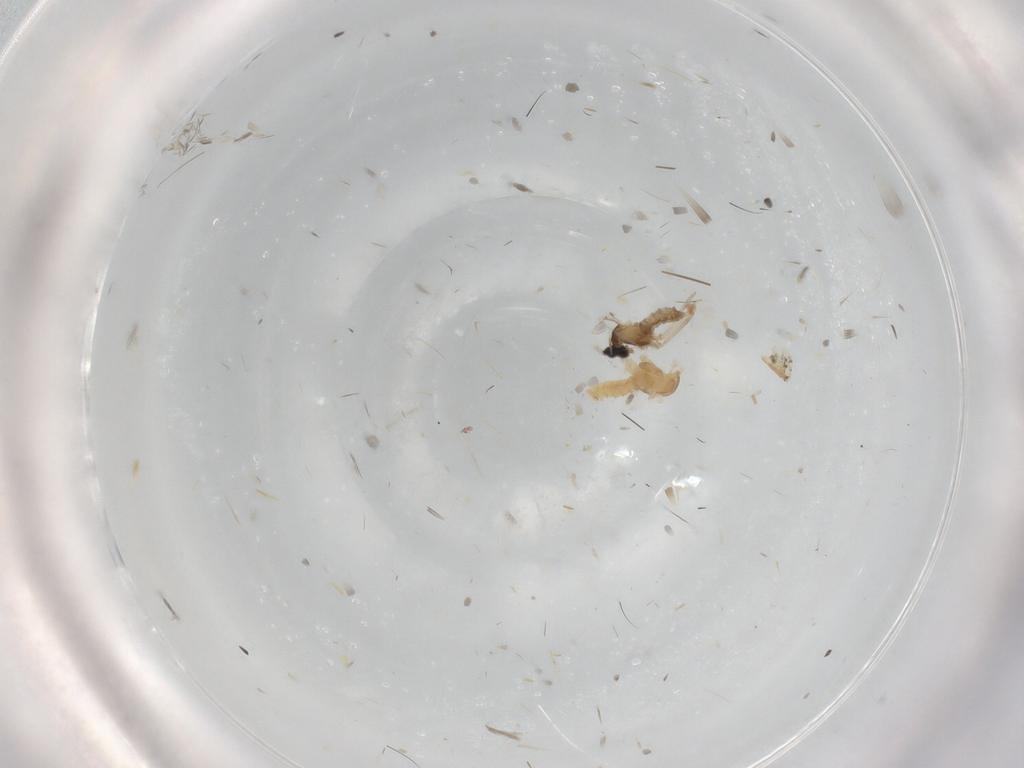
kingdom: Animalia
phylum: Arthropoda
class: Insecta
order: Diptera
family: Cecidomyiidae
